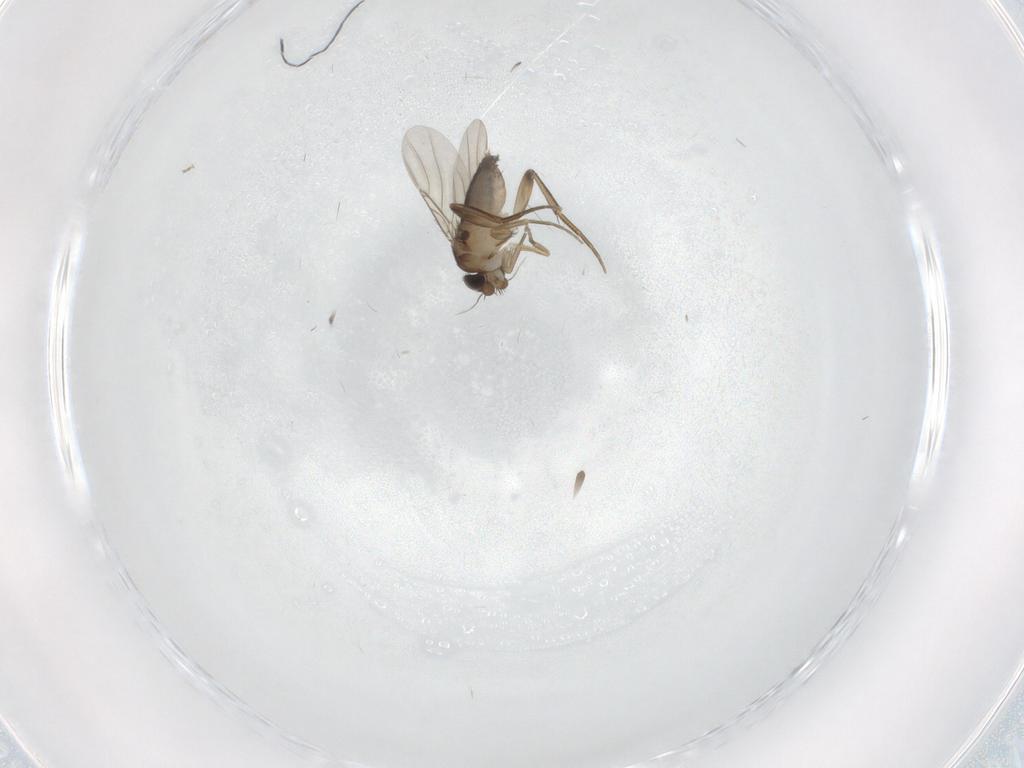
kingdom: Animalia
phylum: Arthropoda
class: Insecta
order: Diptera
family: Phoridae
